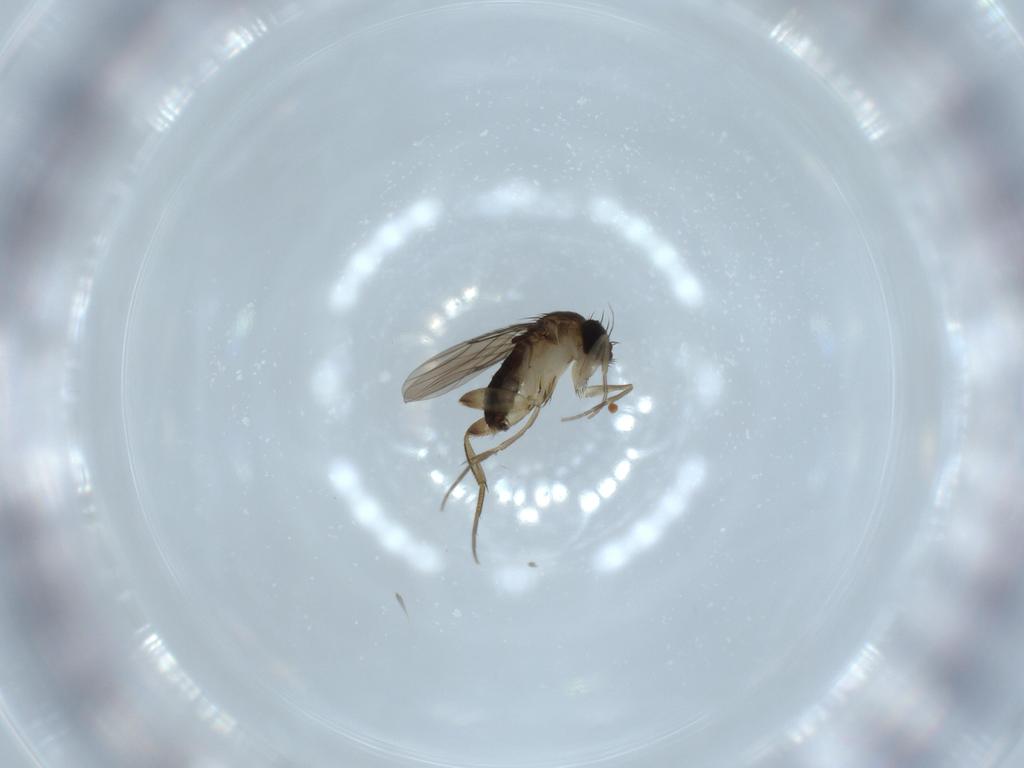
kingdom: Animalia
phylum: Arthropoda
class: Insecta
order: Diptera
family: Phoridae
